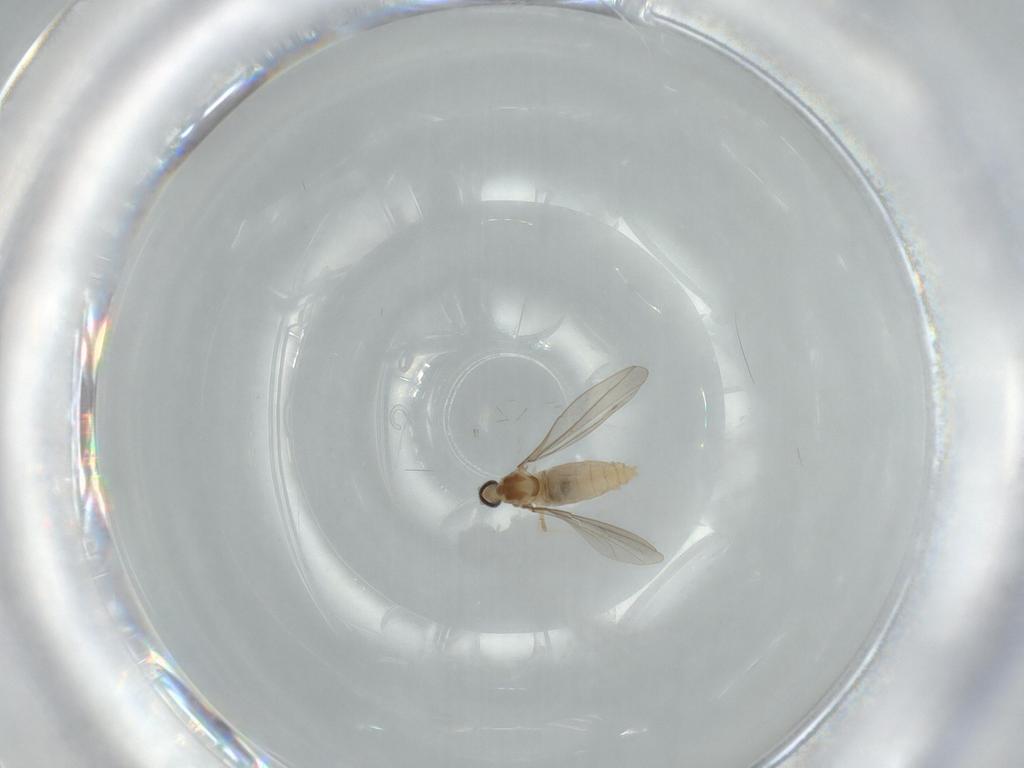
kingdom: Animalia
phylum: Arthropoda
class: Insecta
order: Diptera
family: Cecidomyiidae
